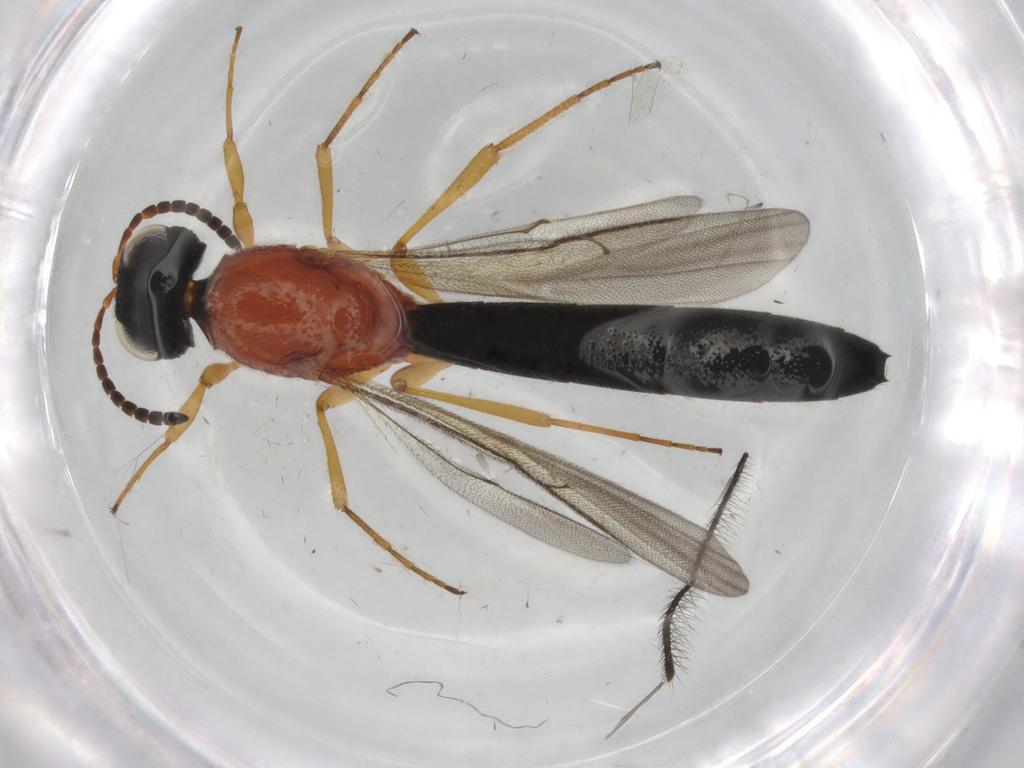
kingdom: Animalia
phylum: Arthropoda
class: Insecta
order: Hymenoptera
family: Scelionidae
